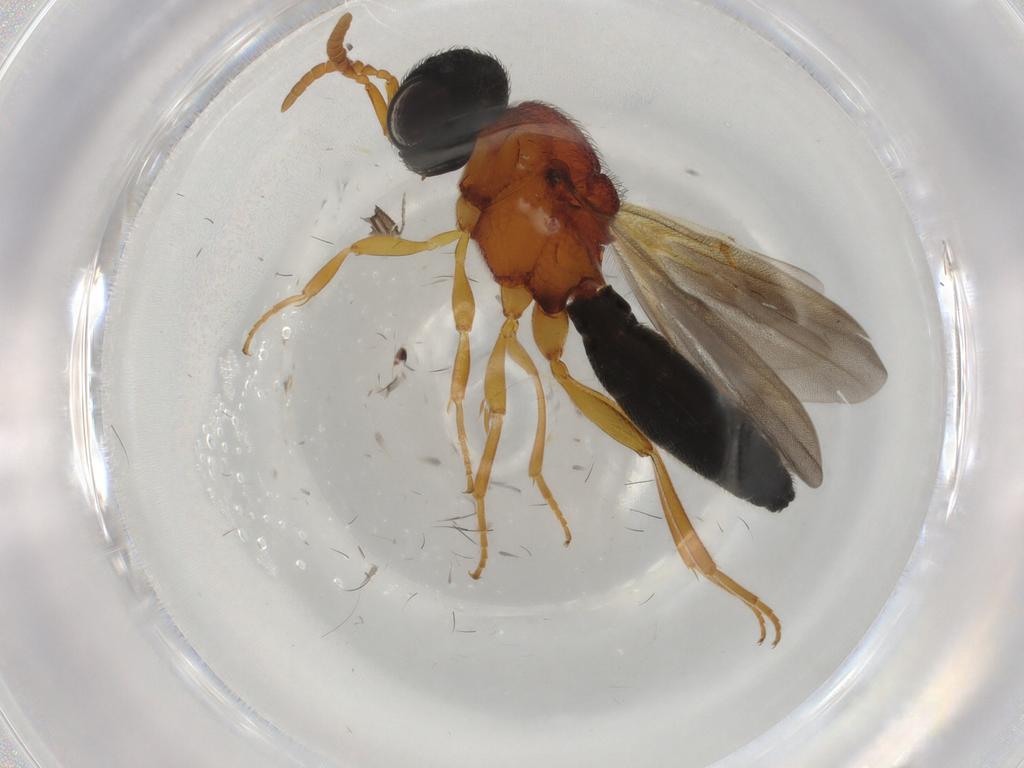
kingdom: Animalia
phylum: Arthropoda
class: Insecta
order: Hymenoptera
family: Scelionidae
